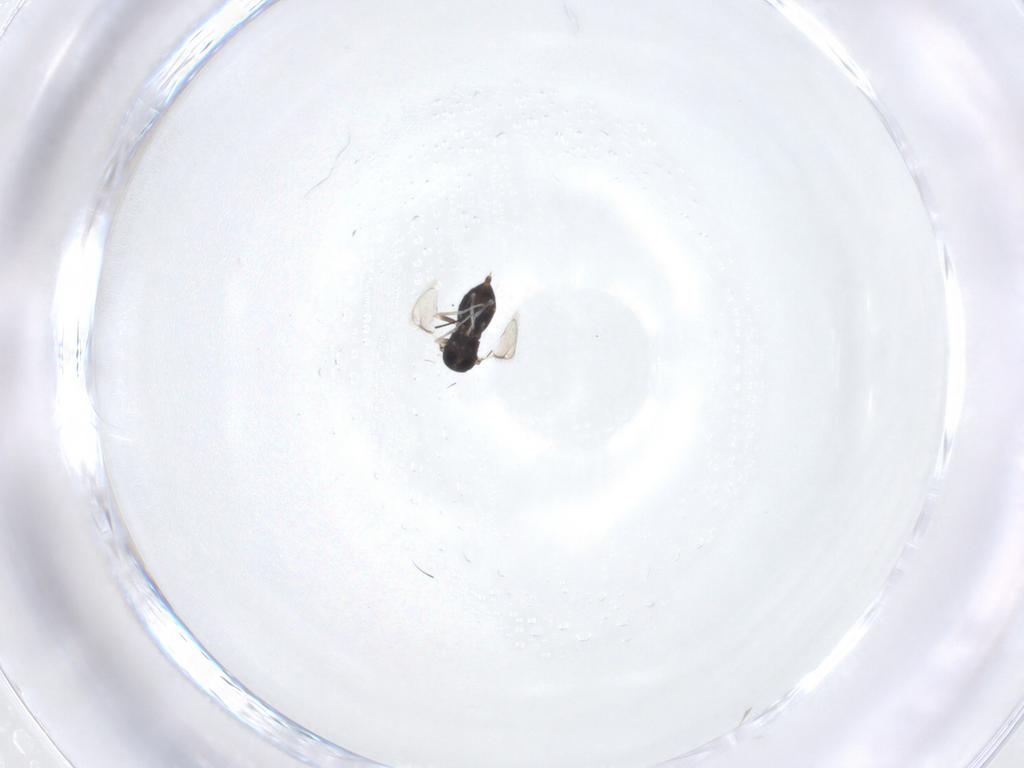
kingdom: Animalia
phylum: Arthropoda
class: Insecta
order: Hymenoptera
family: Eulophidae
